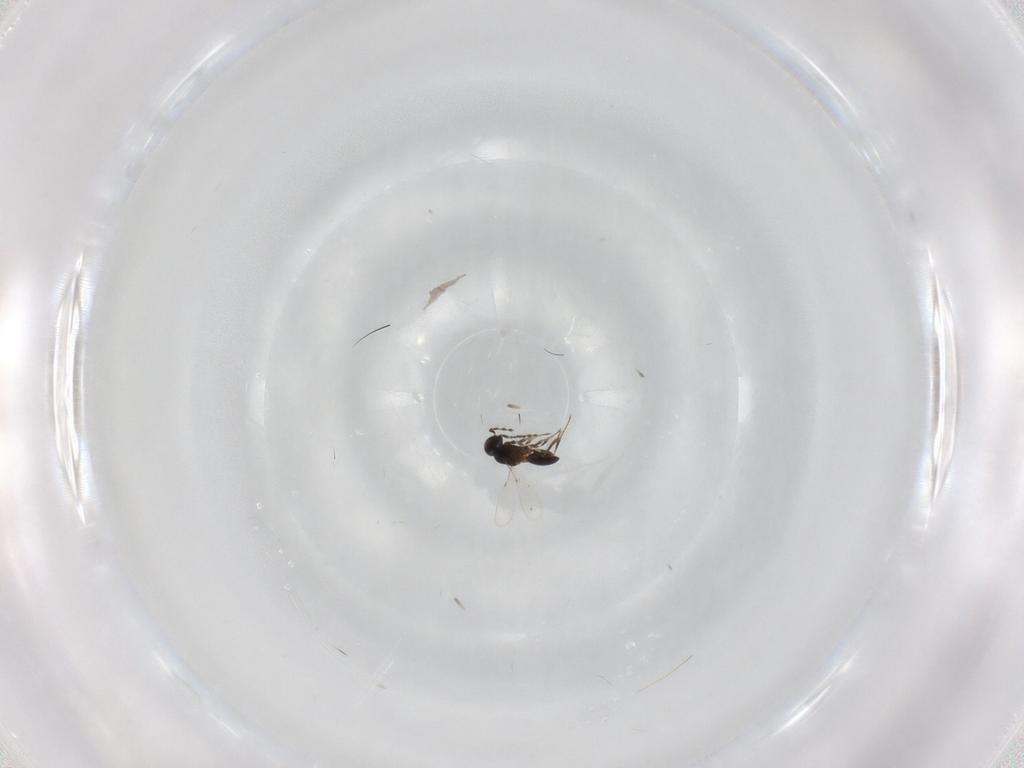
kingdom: Animalia
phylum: Arthropoda
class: Insecta
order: Hymenoptera
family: Platygastridae
